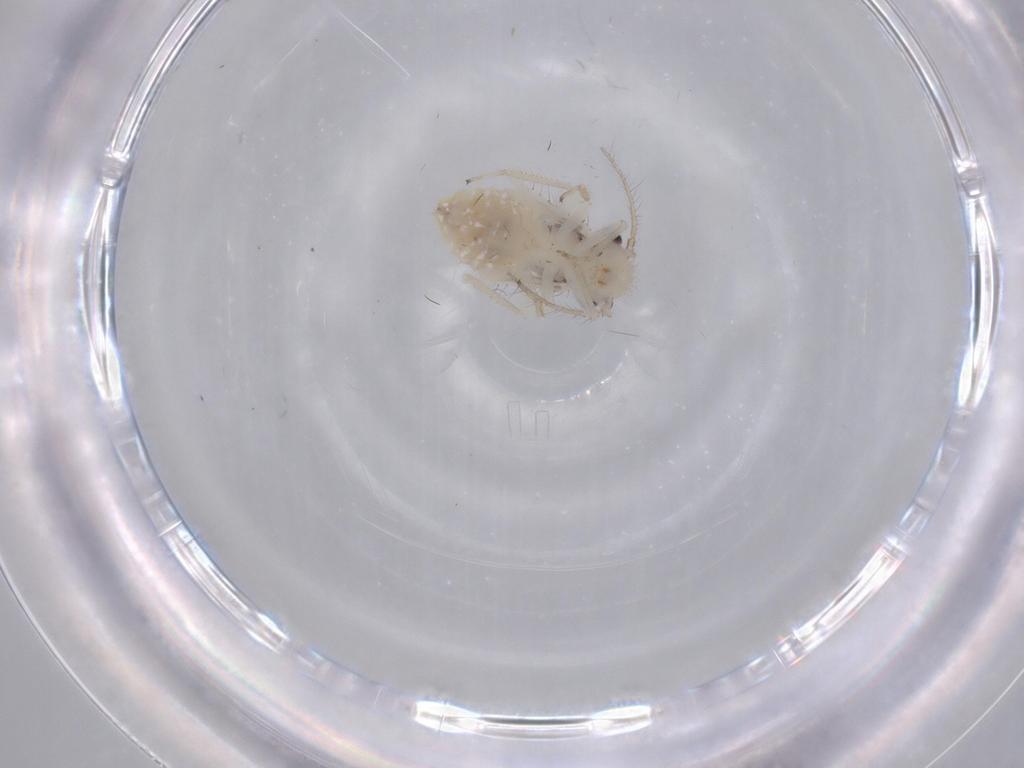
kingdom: Animalia
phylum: Arthropoda
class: Insecta
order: Psocodea
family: Pseudocaeciliidae
